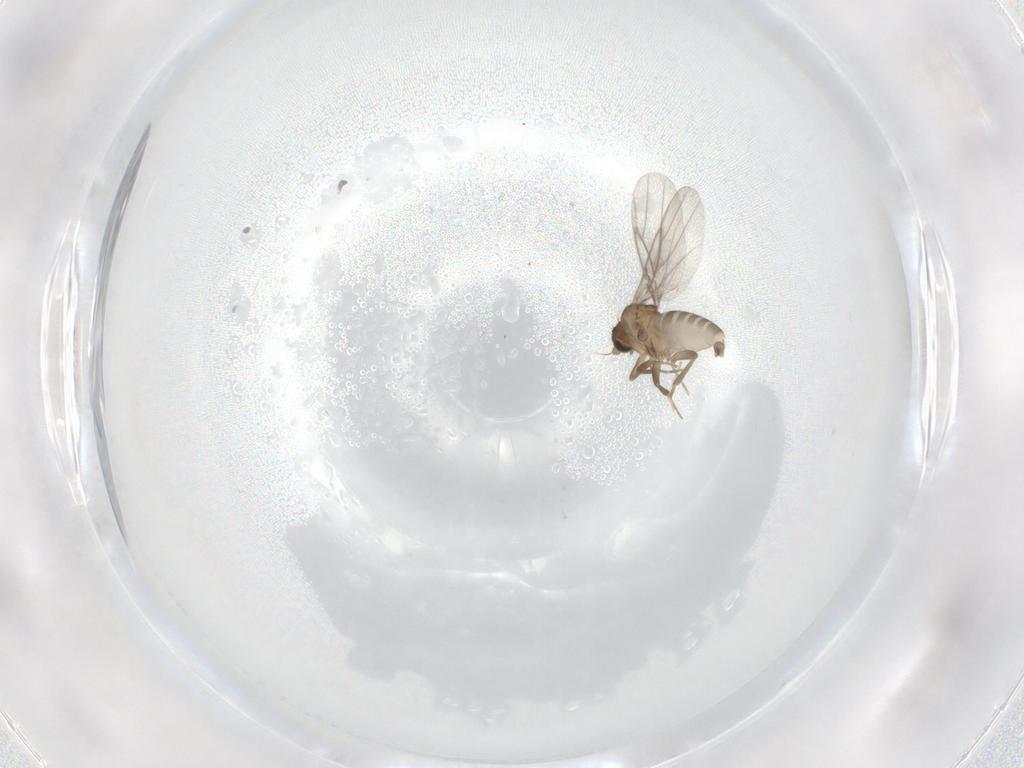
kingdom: Animalia
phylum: Arthropoda
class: Insecta
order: Diptera
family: Cecidomyiidae
